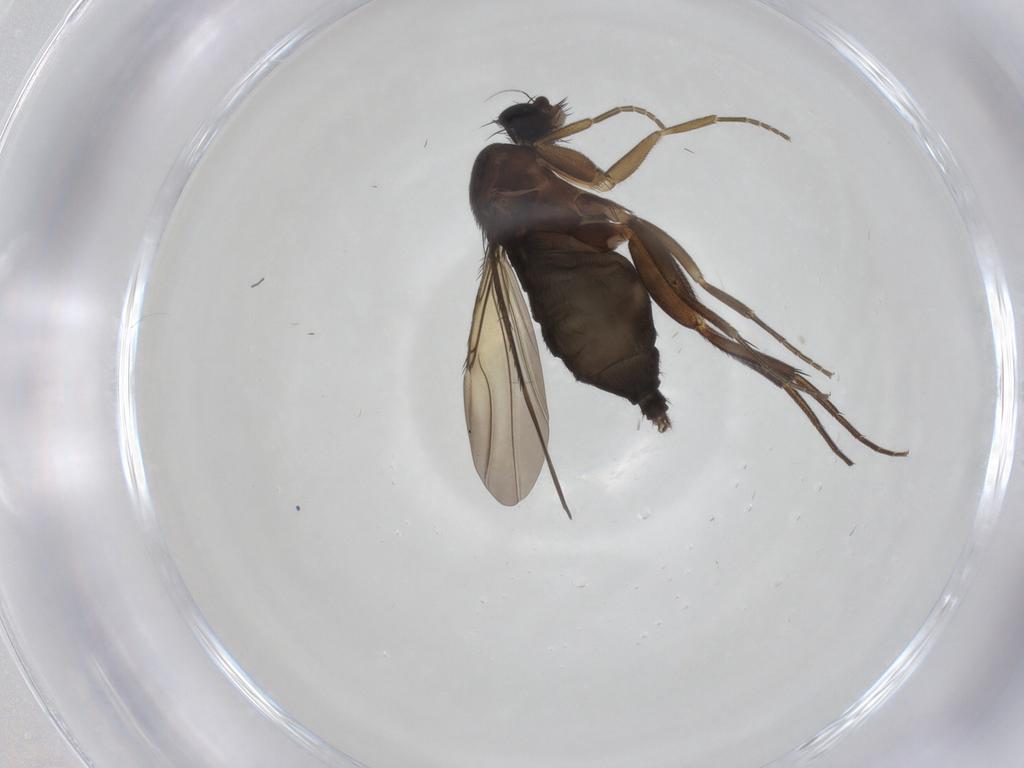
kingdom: Animalia
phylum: Arthropoda
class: Insecta
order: Diptera
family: Phoridae
